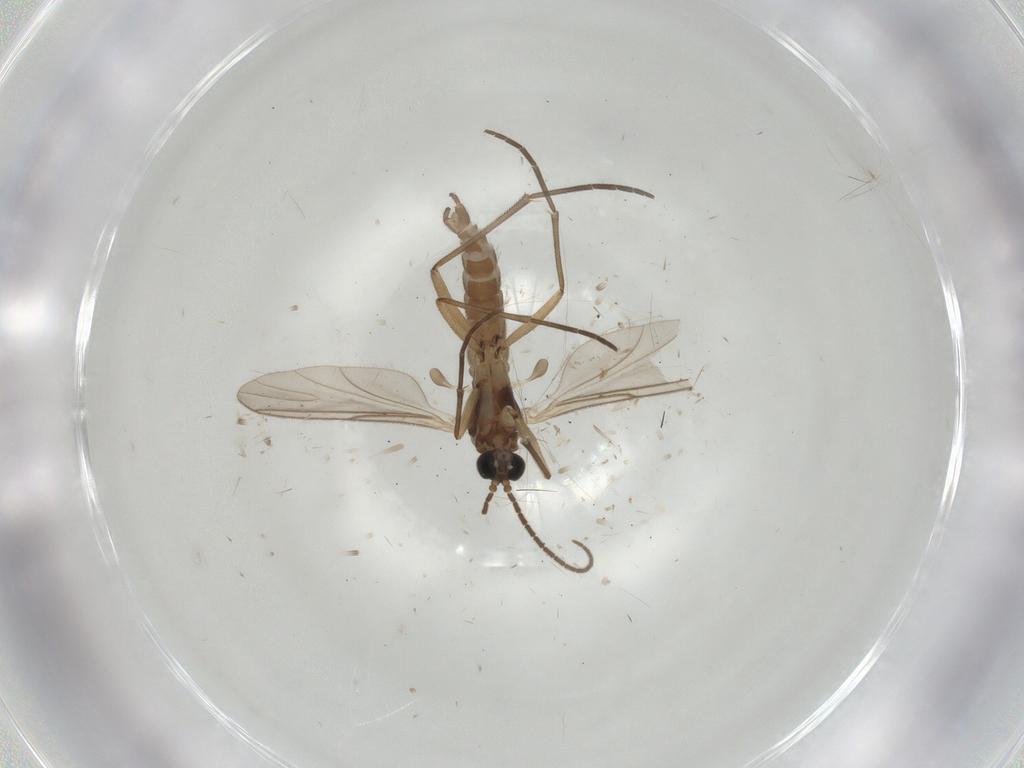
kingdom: Animalia
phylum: Arthropoda
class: Insecta
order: Diptera
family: Sciaridae
